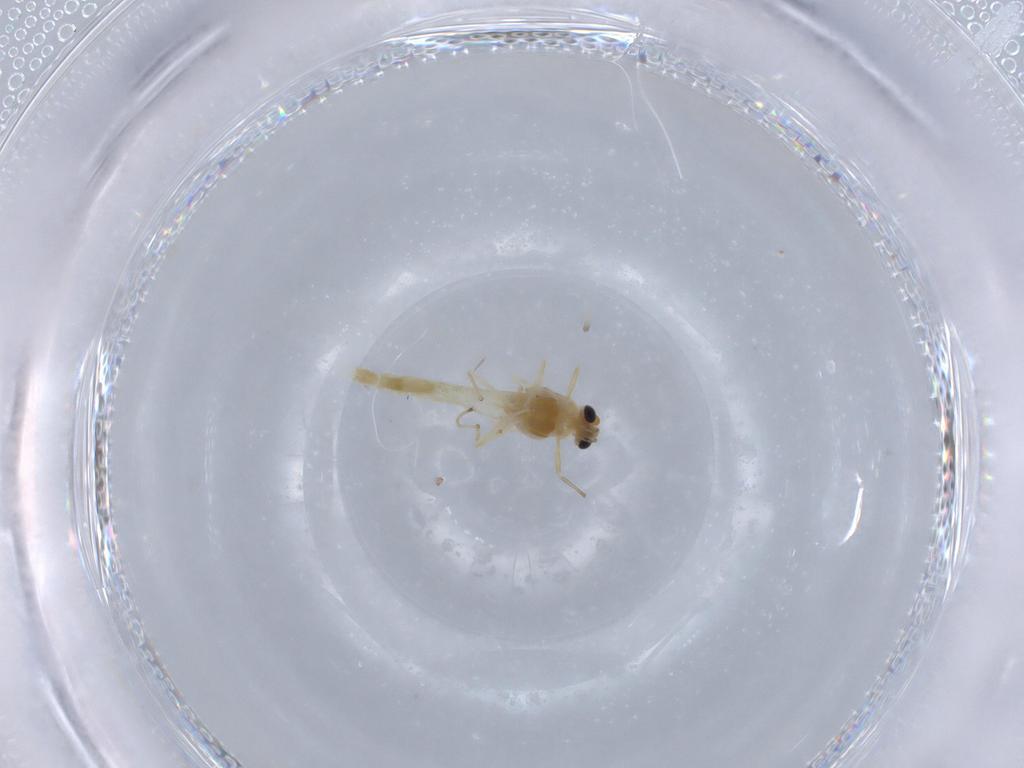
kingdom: Animalia
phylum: Arthropoda
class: Insecta
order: Diptera
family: Chironomidae
